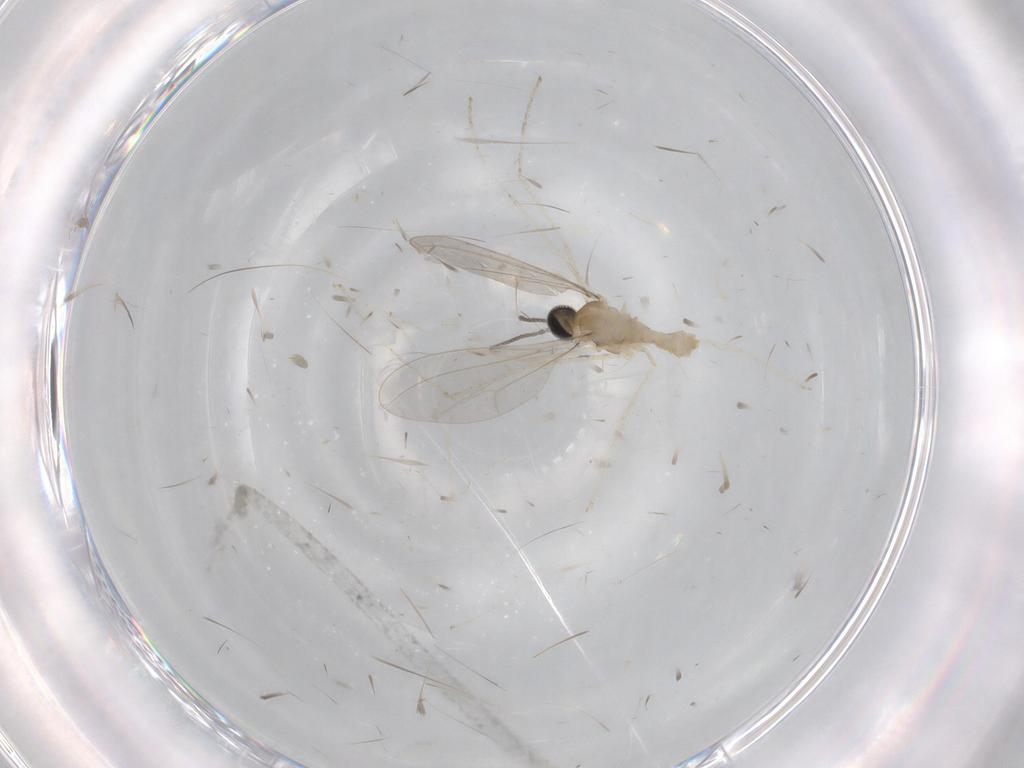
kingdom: Animalia
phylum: Arthropoda
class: Insecta
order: Diptera
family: Cecidomyiidae
